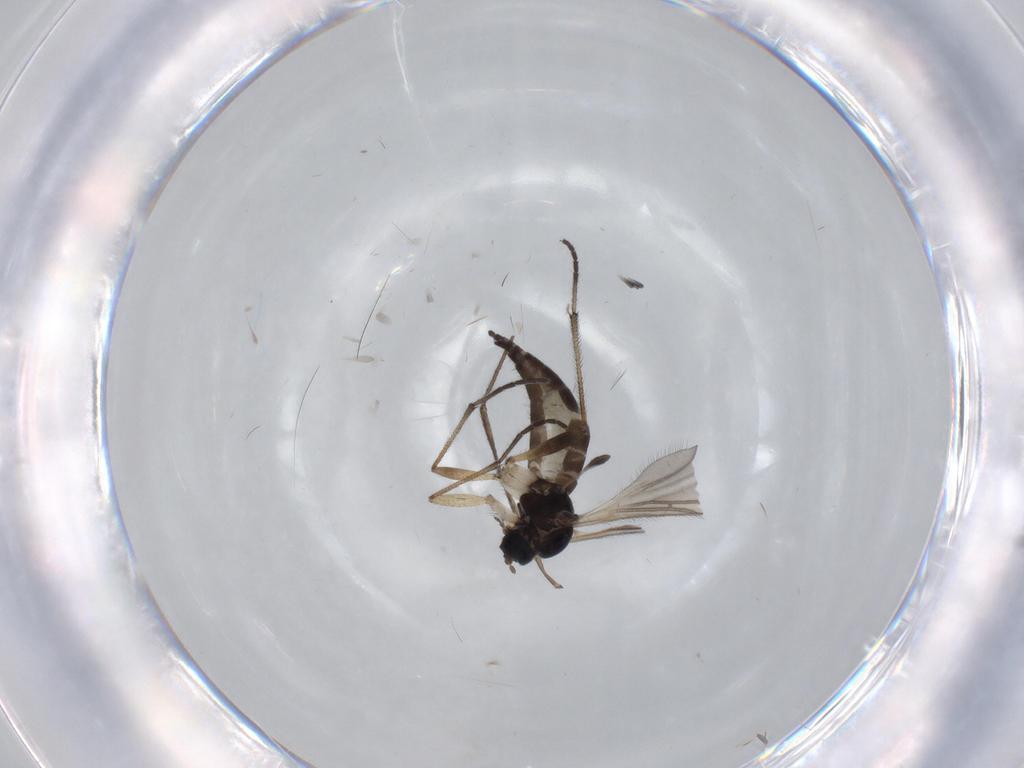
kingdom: Animalia
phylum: Arthropoda
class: Insecta
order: Diptera
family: Sciaridae
